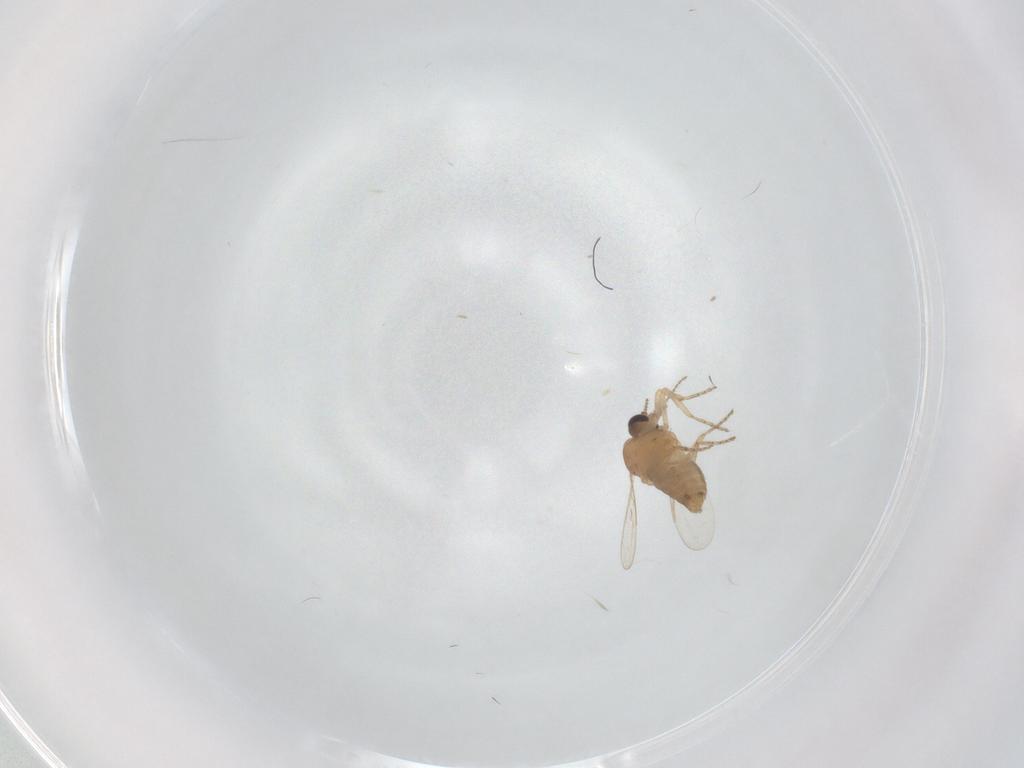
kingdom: Animalia
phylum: Arthropoda
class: Insecta
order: Diptera
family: Ceratopogonidae
